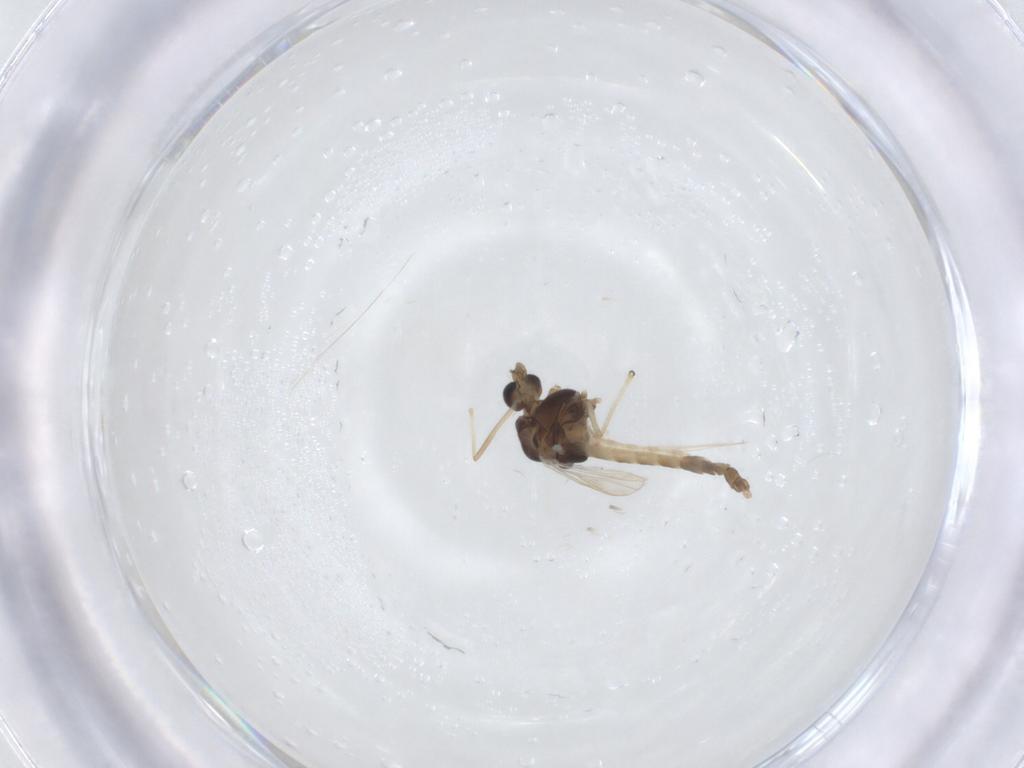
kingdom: Animalia
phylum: Arthropoda
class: Insecta
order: Diptera
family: Chironomidae
